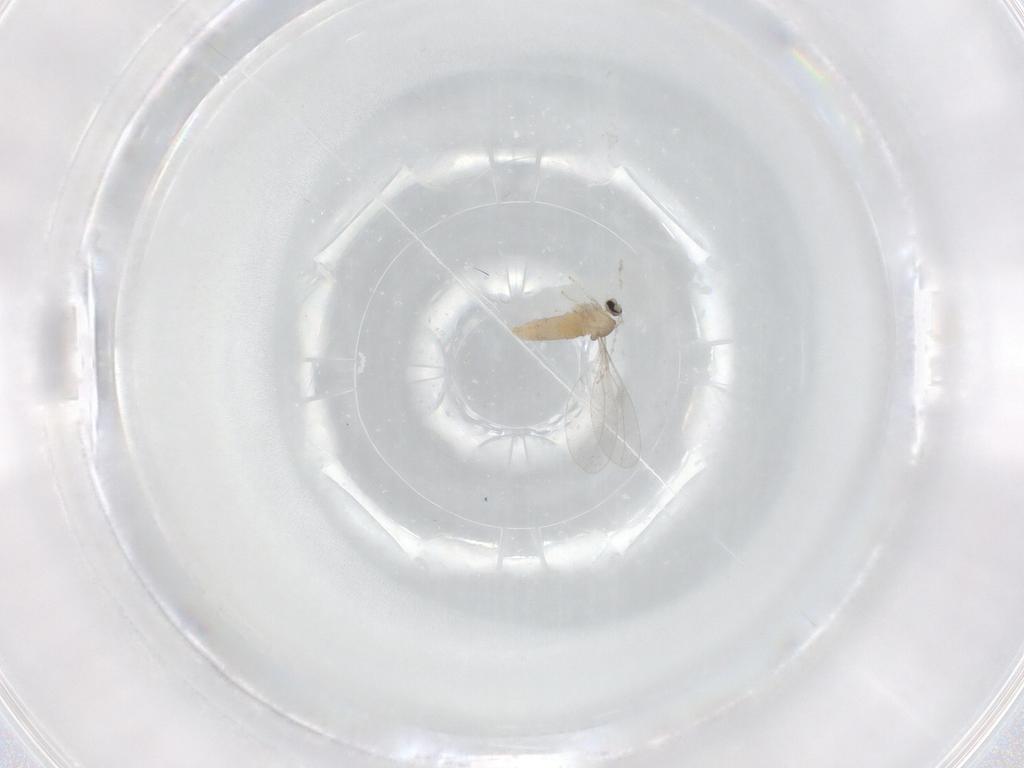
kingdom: Animalia
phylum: Arthropoda
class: Insecta
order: Diptera
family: Cecidomyiidae
